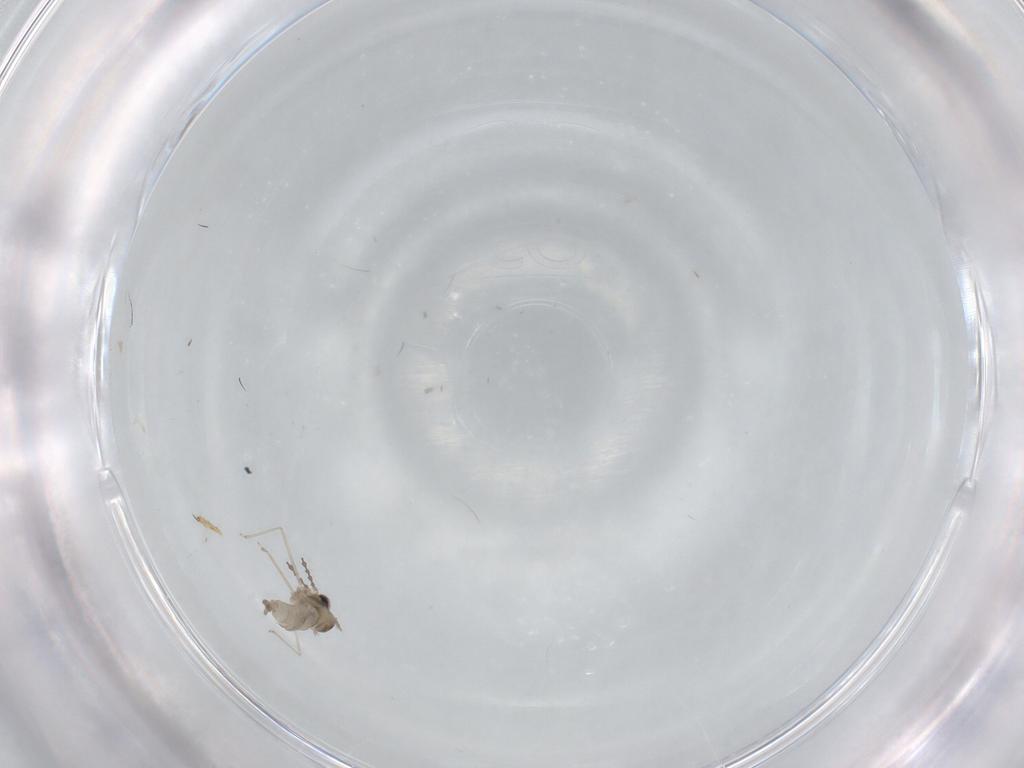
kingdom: Animalia
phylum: Arthropoda
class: Insecta
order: Diptera
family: Cecidomyiidae
